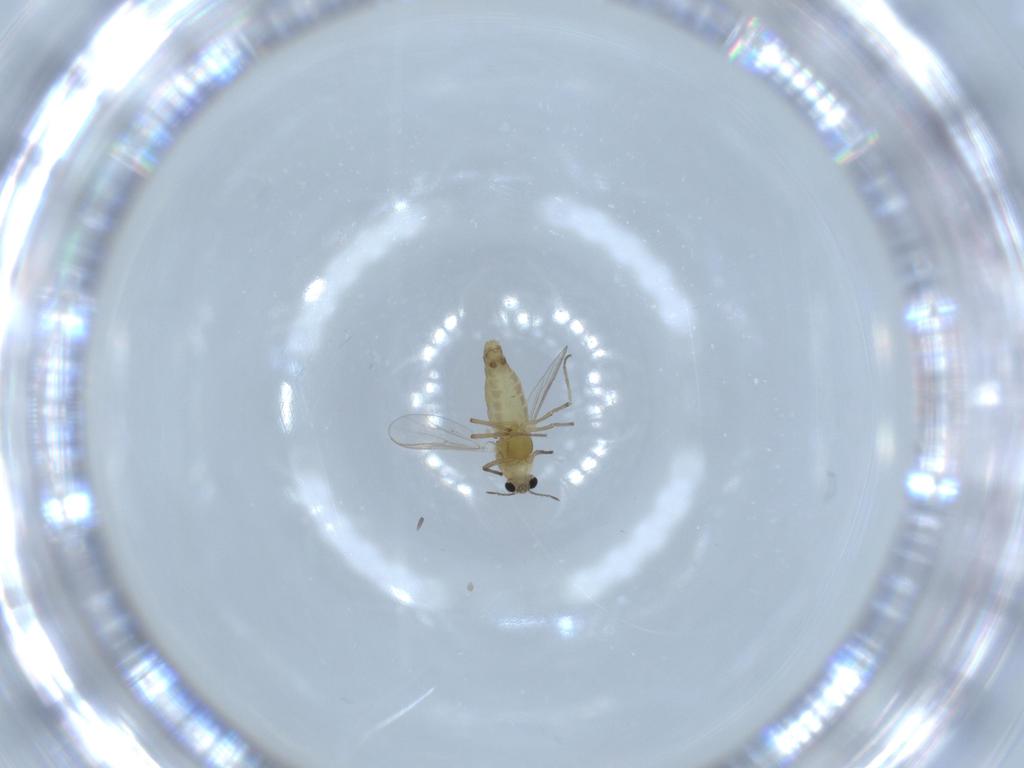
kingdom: Animalia
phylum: Arthropoda
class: Insecta
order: Diptera
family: Chironomidae
